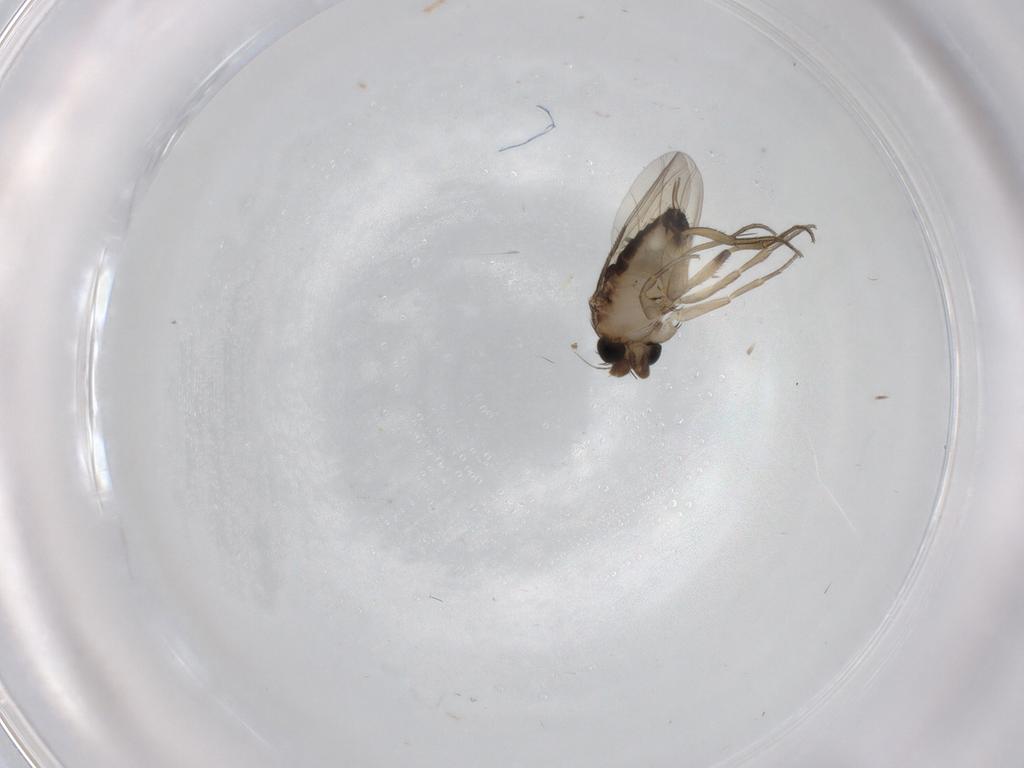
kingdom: Animalia
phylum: Arthropoda
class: Insecta
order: Diptera
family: Phoridae
